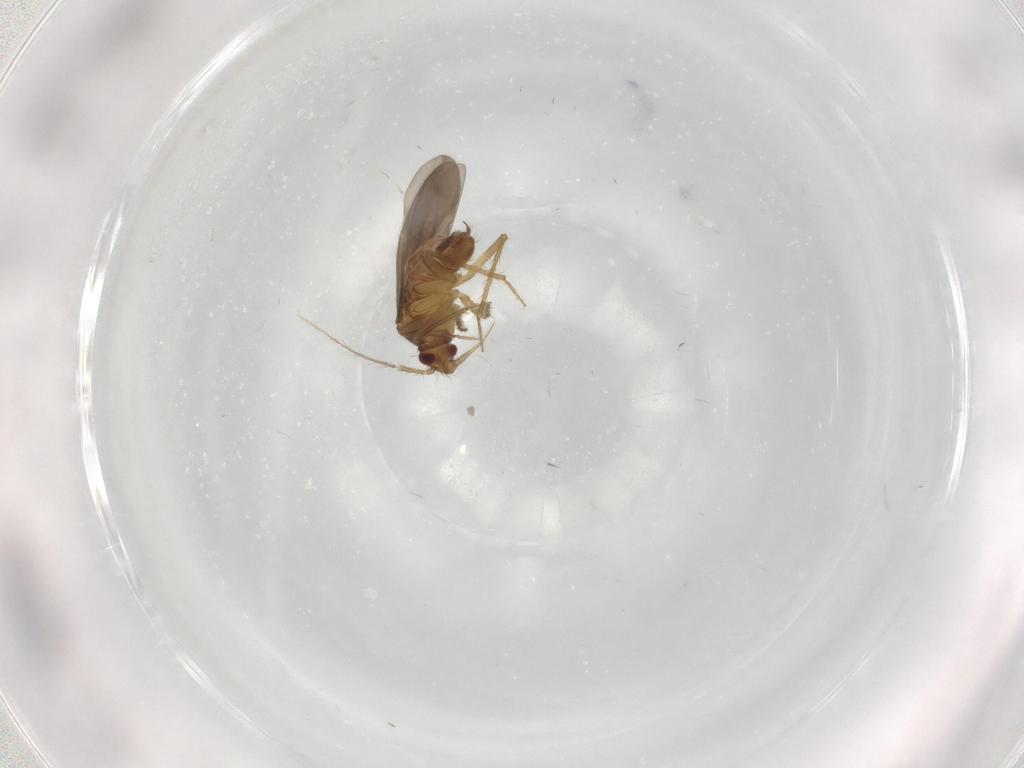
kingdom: Animalia
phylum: Arthropoda
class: Insecta
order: Hemiptera
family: Ceratocombidae
